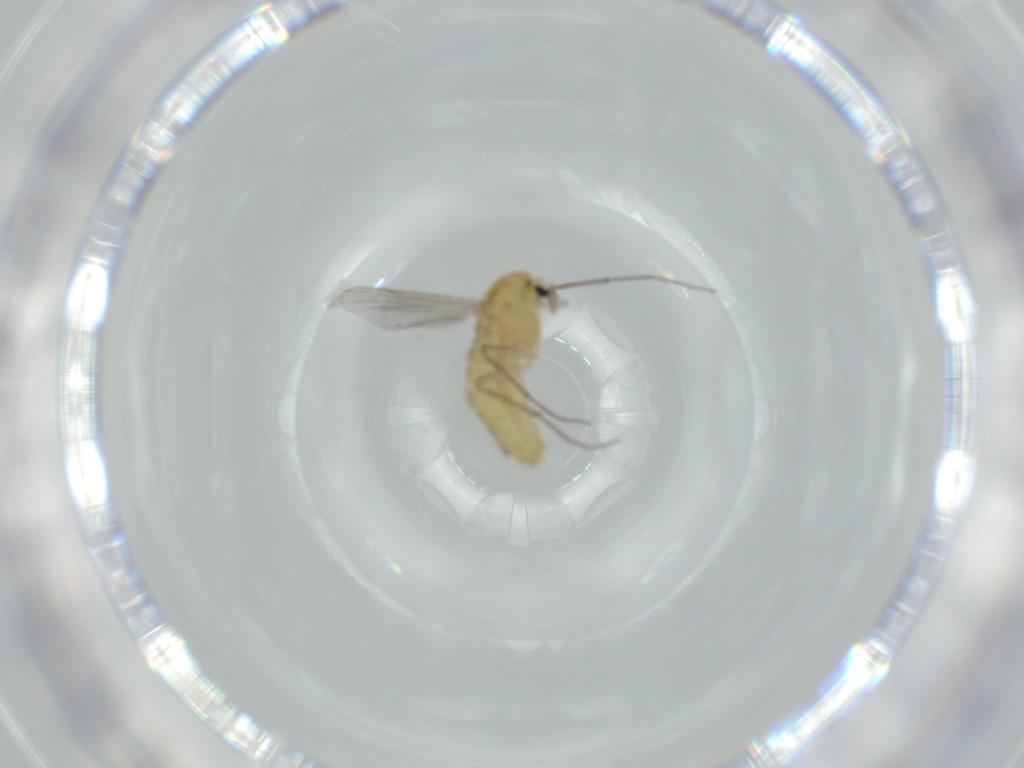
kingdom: Animalia
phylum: Arthropoda
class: Insecta
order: Diptera
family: Chironomidae
